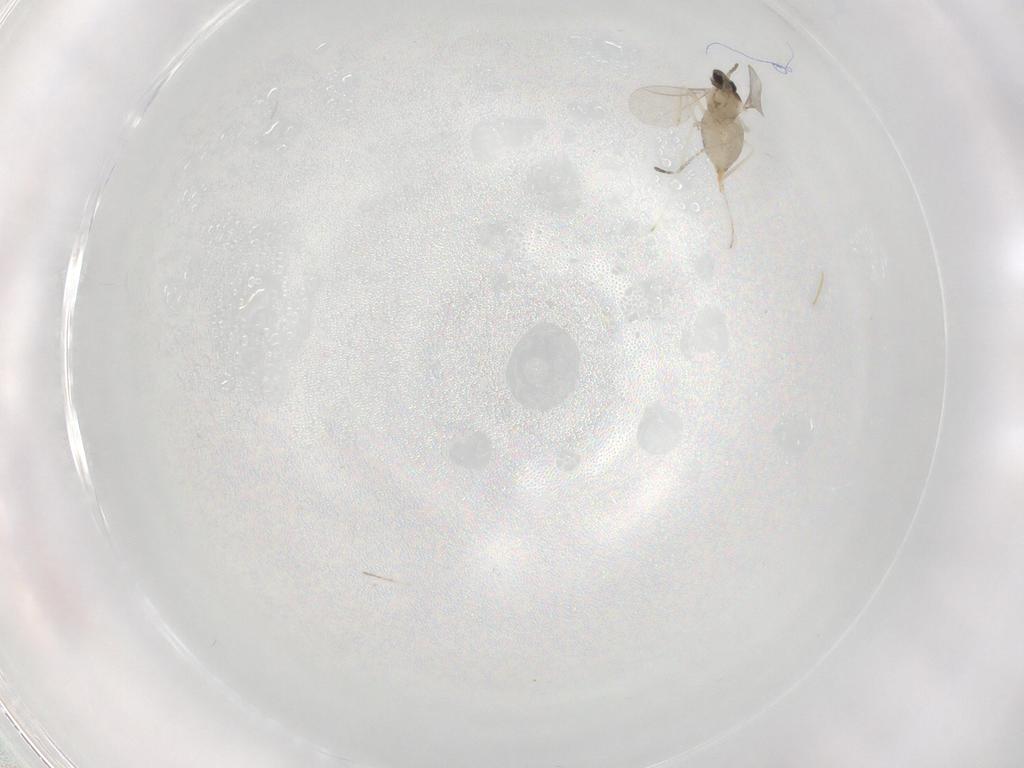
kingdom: Animalia
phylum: Arthropoda
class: Insecta
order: Diptera
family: Cecidomyiidae
